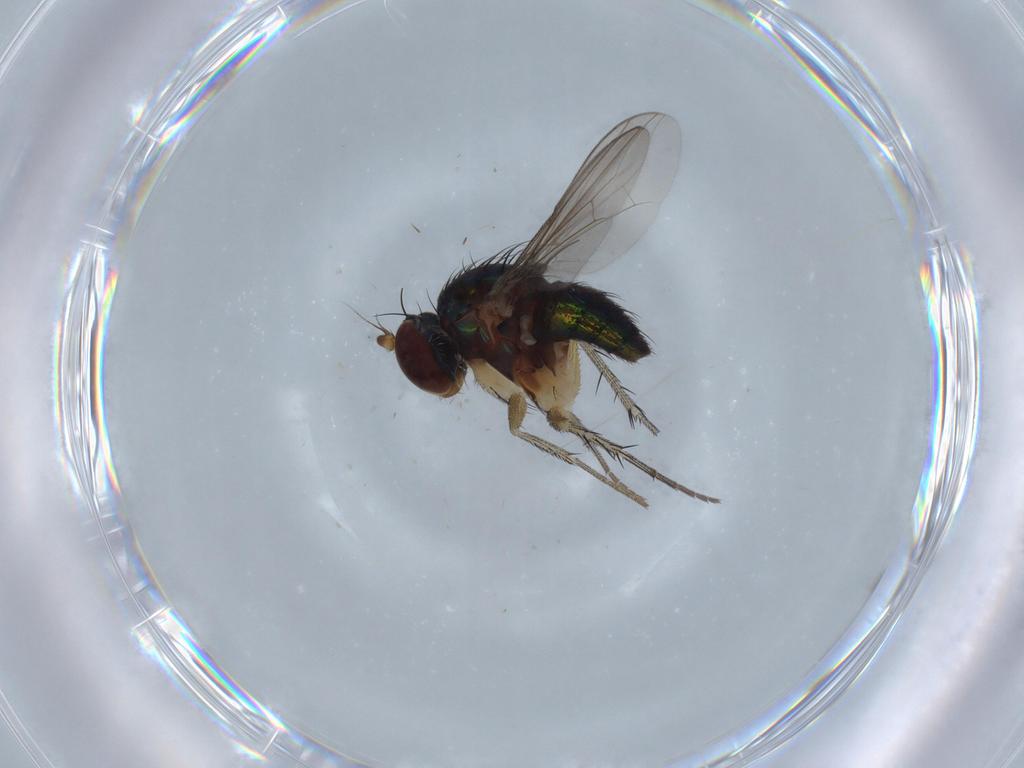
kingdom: Animalia
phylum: Arthropoda
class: Insecta
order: Diptera
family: Dolichopodidae
